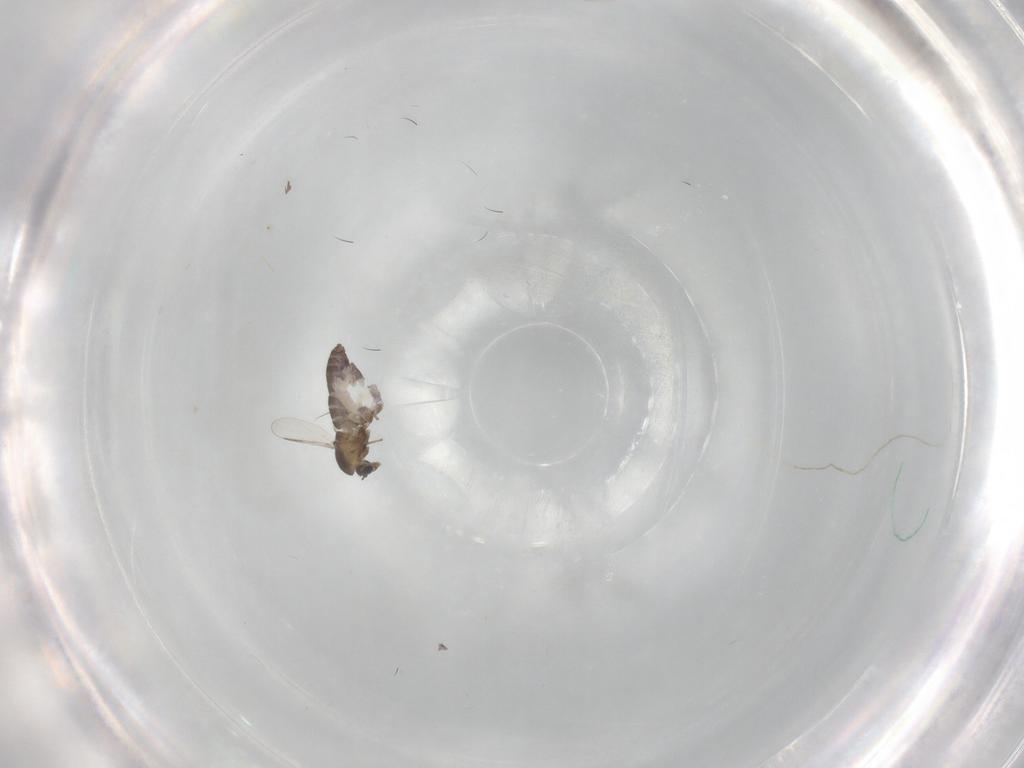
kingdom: Animalia
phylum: Arthropoda
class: Insecta
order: Diptera
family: Chironomidae
